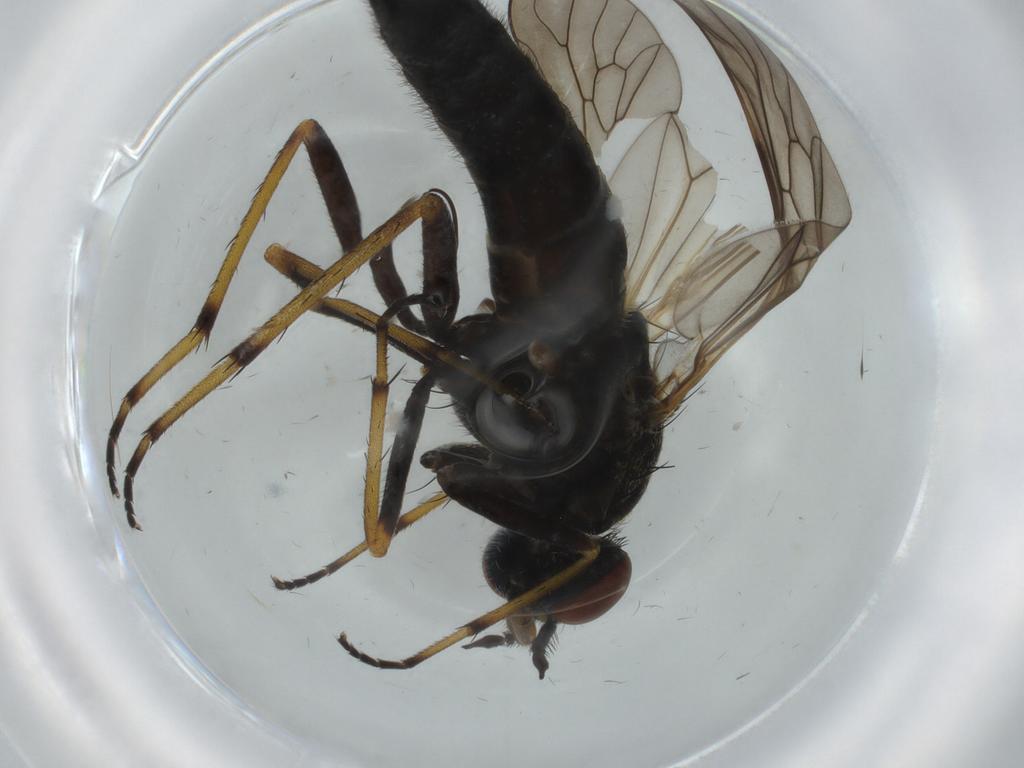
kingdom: Animalia
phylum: Arthropoda
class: Insecta
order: Diptera
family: Therevidae
